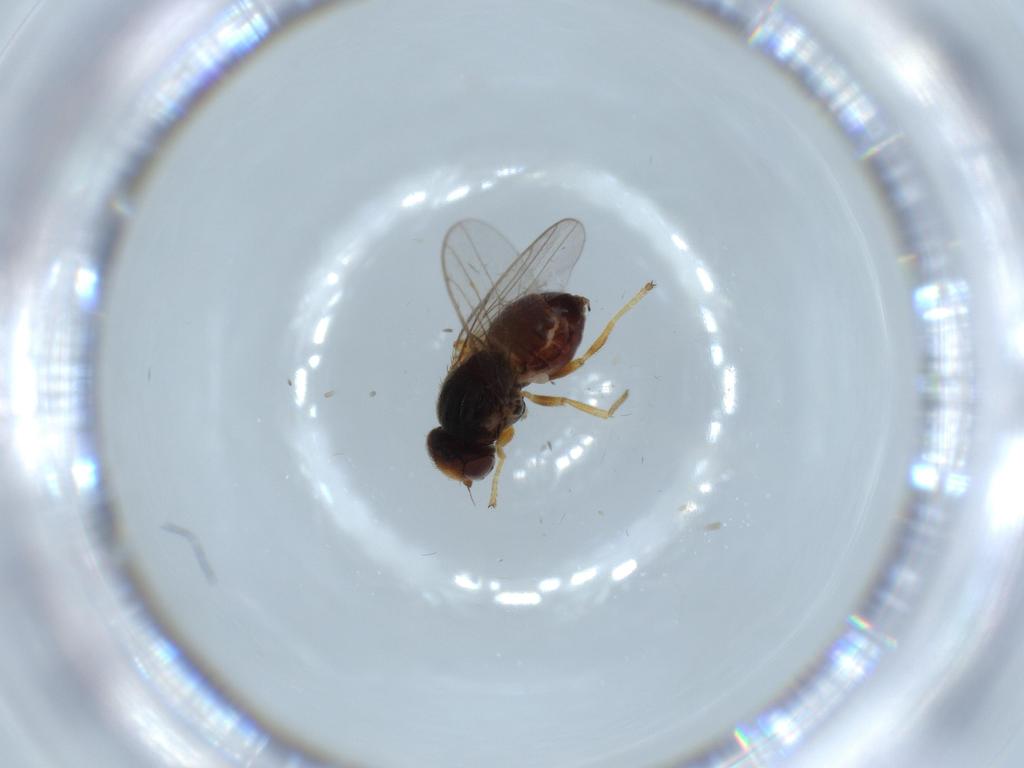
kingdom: Animalia
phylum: Arthropoda
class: Insecta
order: Diptera
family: Chloropidae
